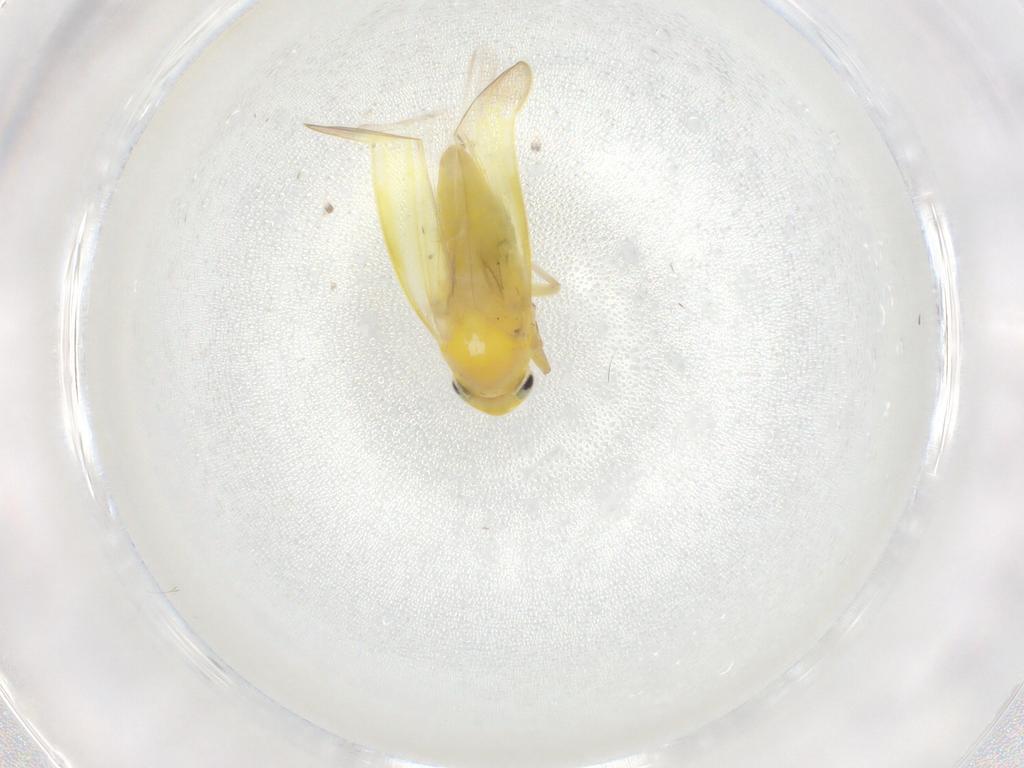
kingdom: Animalia
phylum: Arthropoda
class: Insecta
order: Hemiptera
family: Cicadellidae
